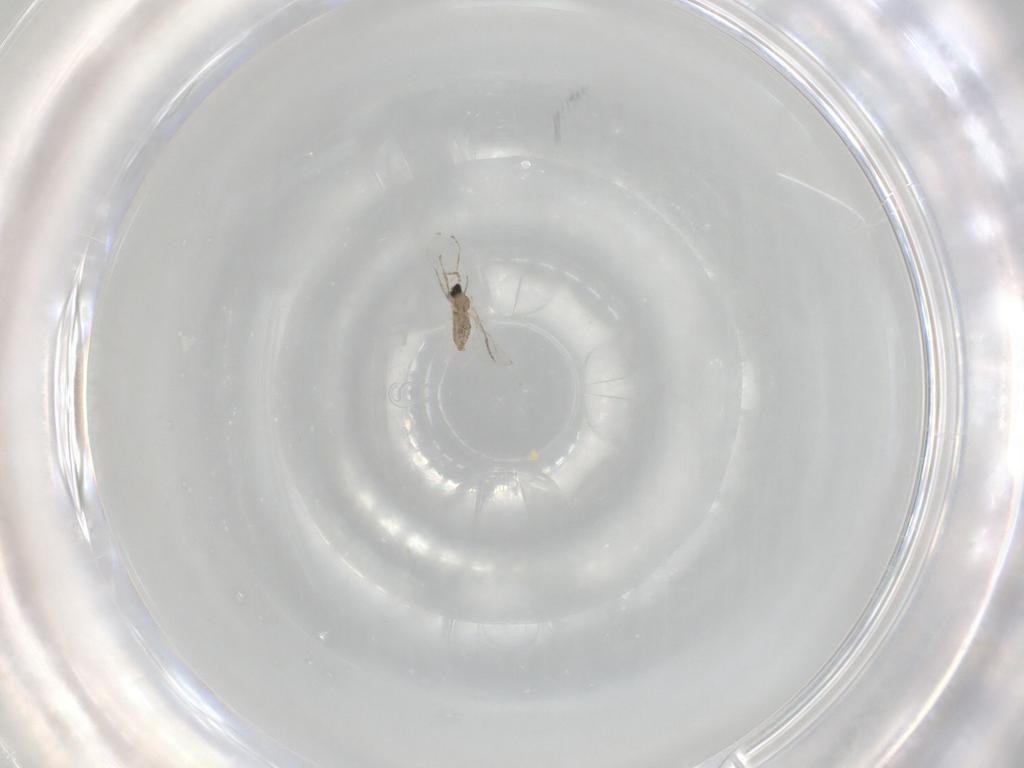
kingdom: Animalia
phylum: Arthropoda
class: Insecta
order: Diptera
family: Cecidomyiidae
